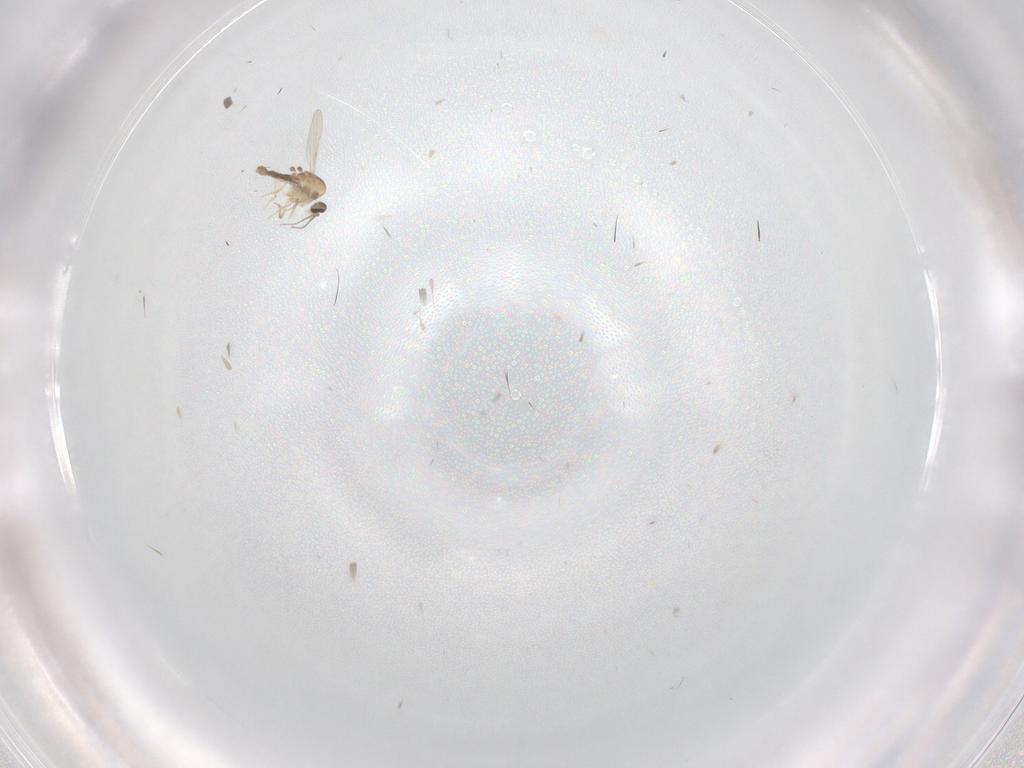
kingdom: Animalia
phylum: Arthropoda
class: Insecta
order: Diptera
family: Ceratopogonidae
